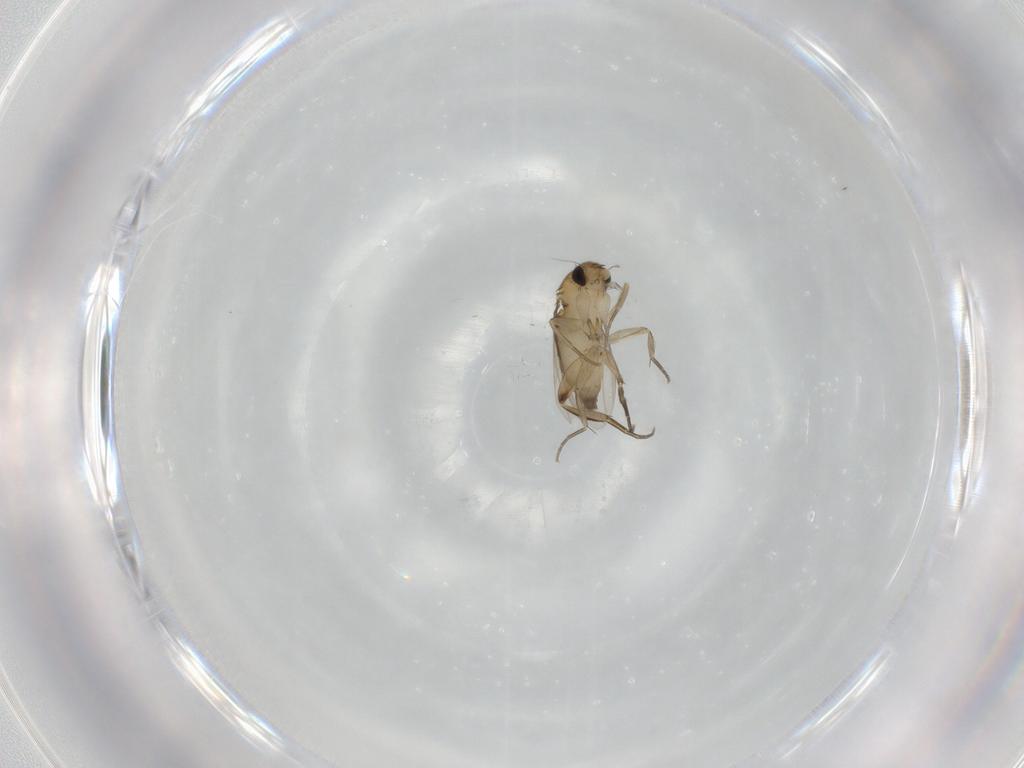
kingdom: Animalia
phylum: Arthropoda
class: Insecta
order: Diptera
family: Phoridae
